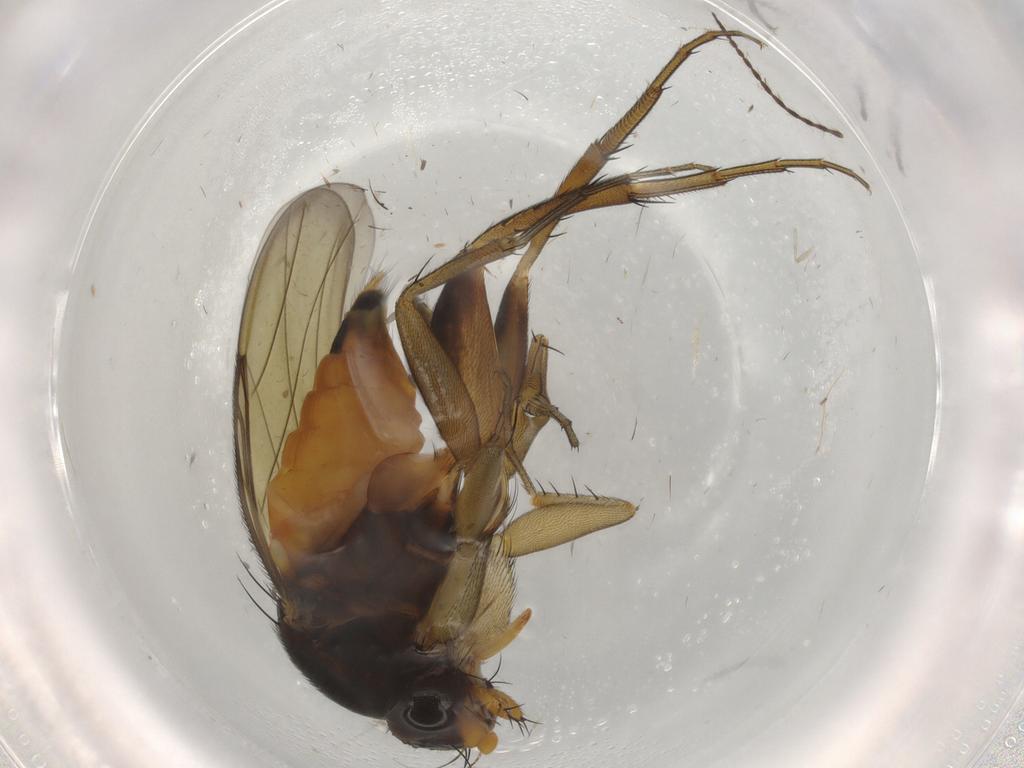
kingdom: Animalia
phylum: Arthropoda
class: Insecta
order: Diptera
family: Limoniidae
